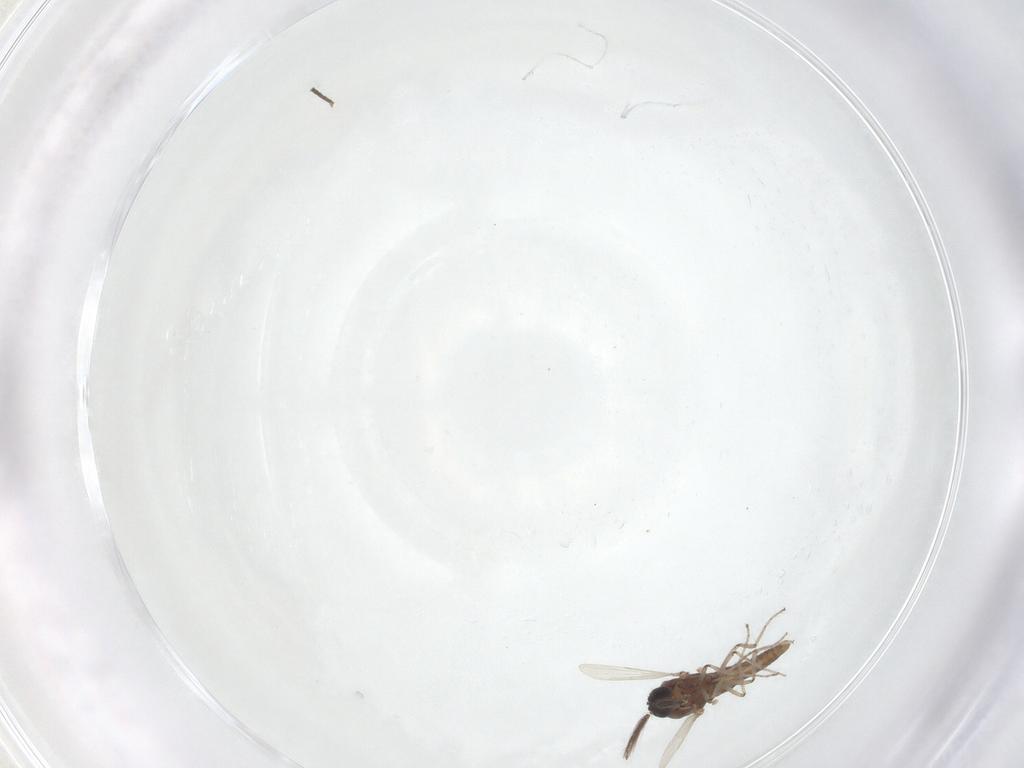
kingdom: Animalia
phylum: Arthropoda
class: Insecta
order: Diptera
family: Ceratopogonidae
